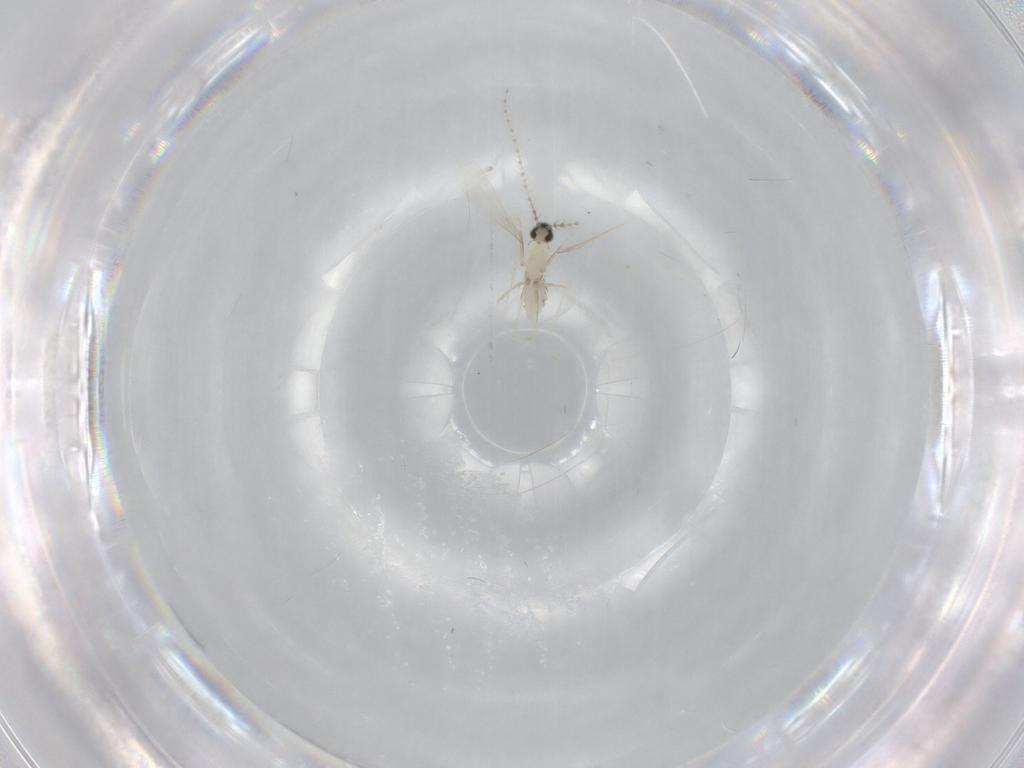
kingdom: Animalia
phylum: Arthropoda
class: Insecta
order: Diptera
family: Cecidomyiidae
